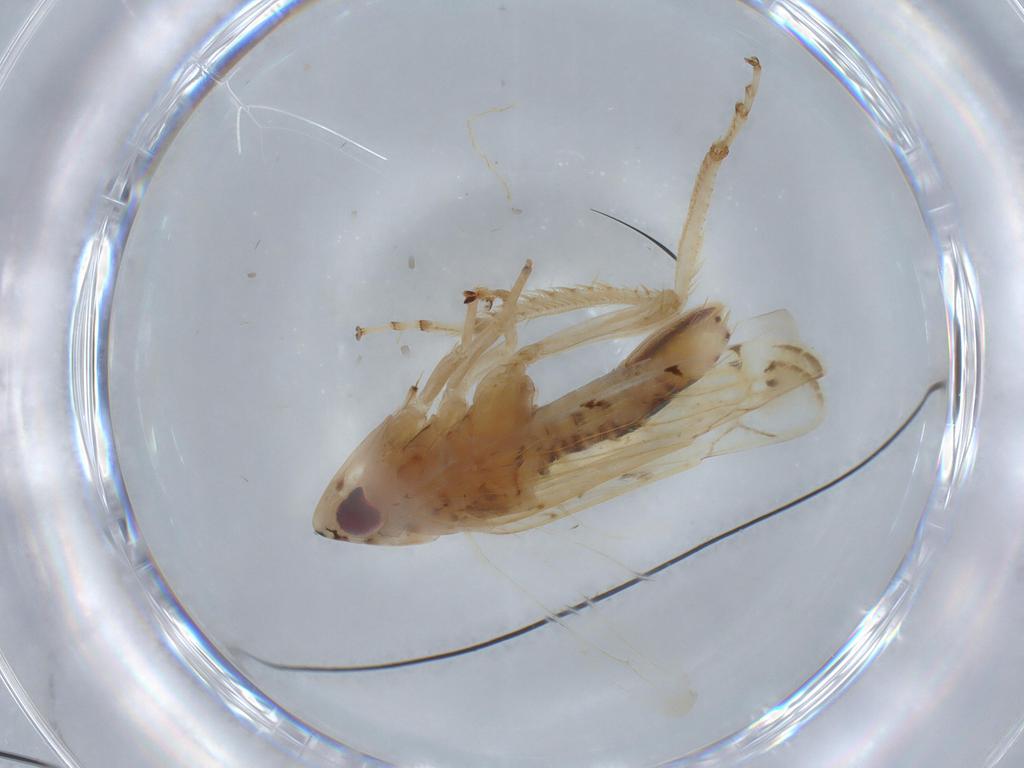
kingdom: Animalia
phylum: Arthropoda
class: Insecta
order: Hemiptera
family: Cicadellidae
